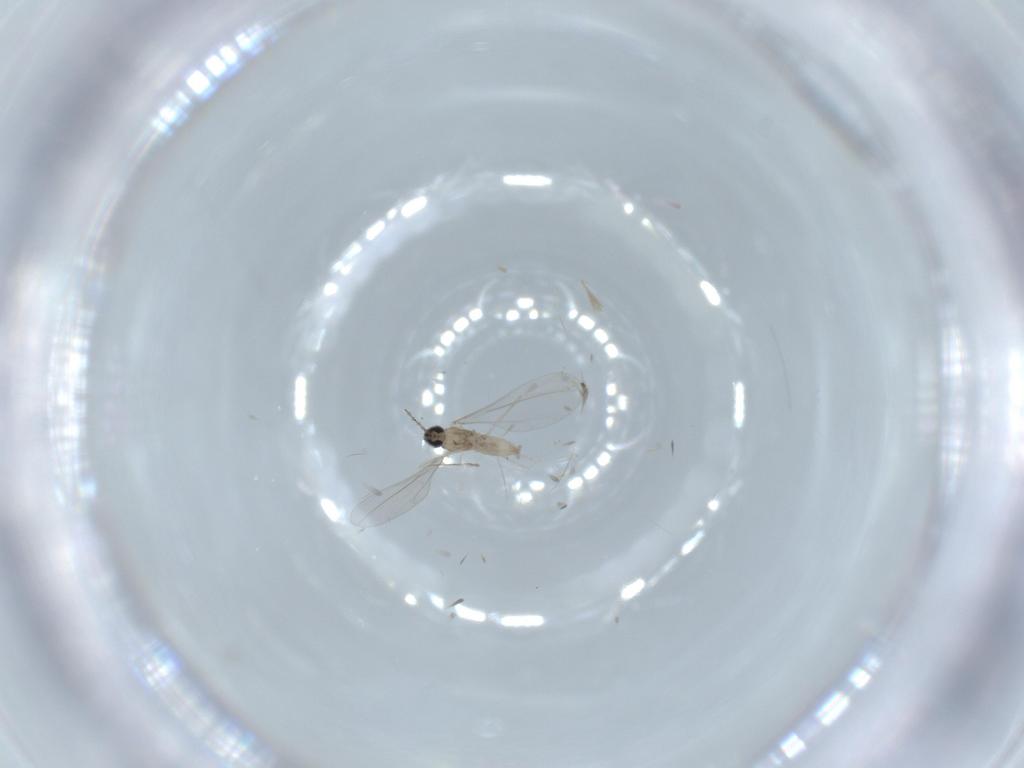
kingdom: Animalia
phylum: Arthropoda
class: Insecta
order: Diptera
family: Cecidomyiidae
